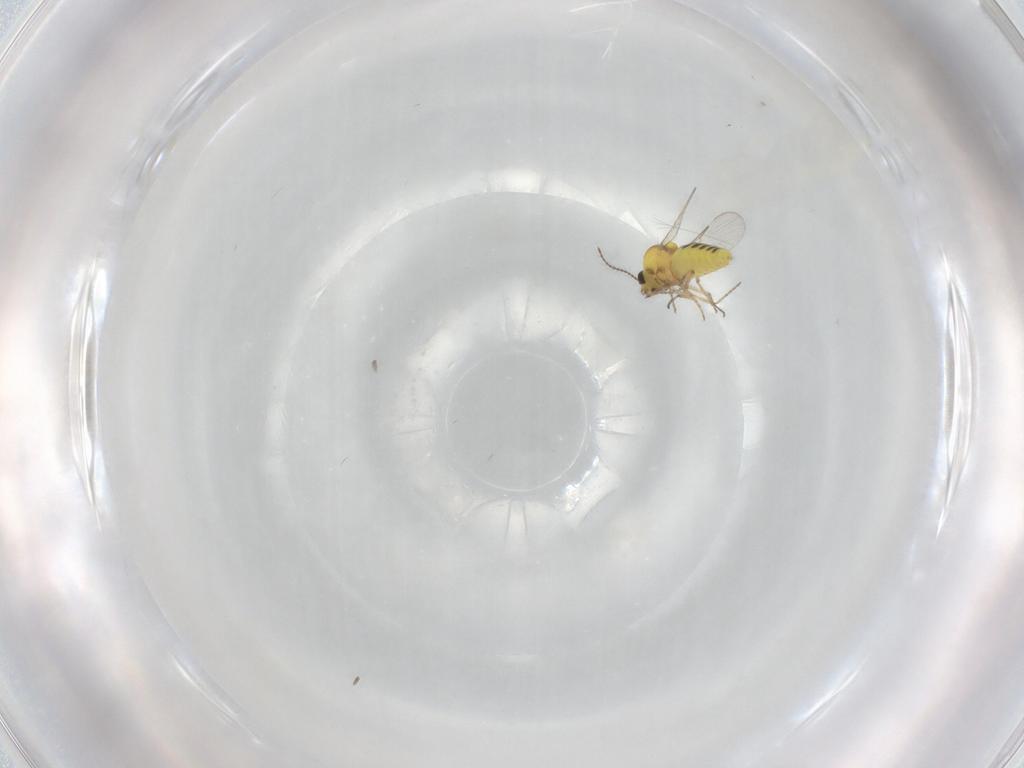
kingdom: Animalia
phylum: Arthropoda
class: Insecta
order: Diptera
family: Ceratopogonidae
